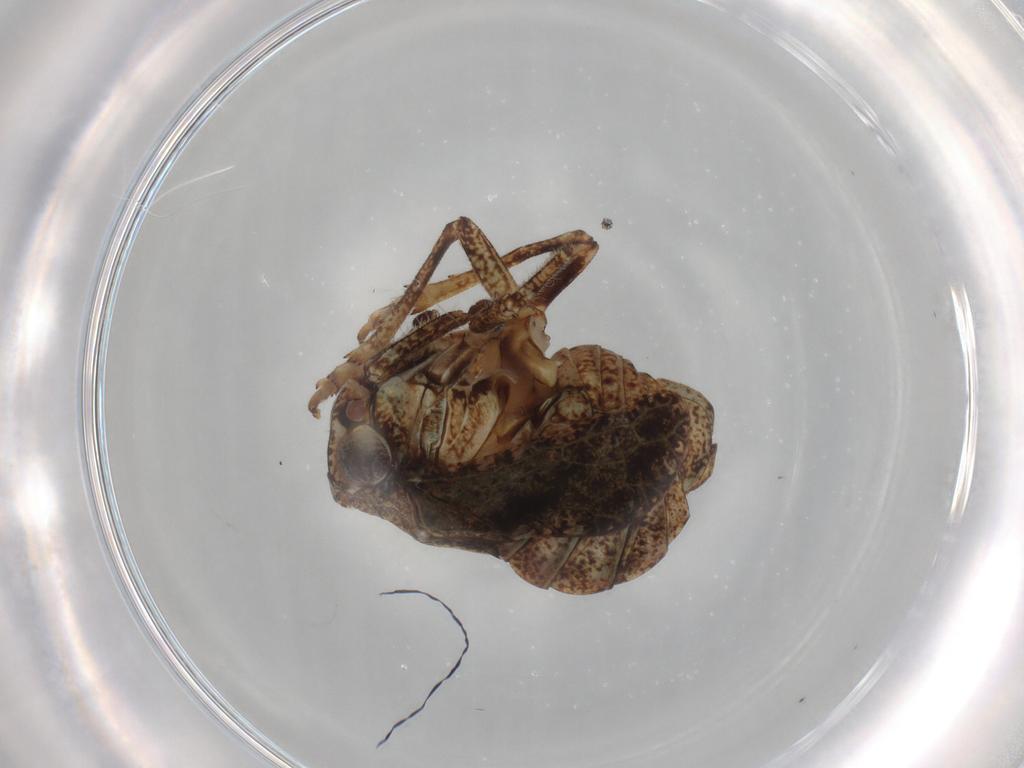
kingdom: Animalia
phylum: Arthropoda
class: Insecta
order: Hemiptera
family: Tropiduchidae
